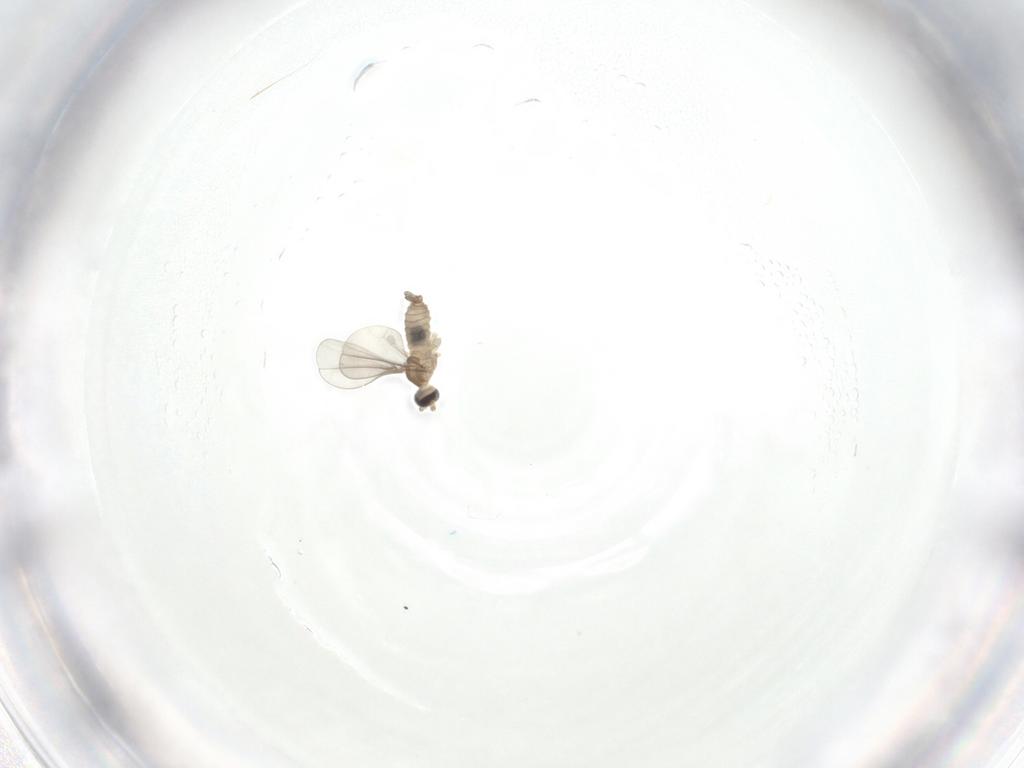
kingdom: Animalia
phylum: Arthropoda
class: Insecta
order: Diptera
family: Cecidomyiidae
